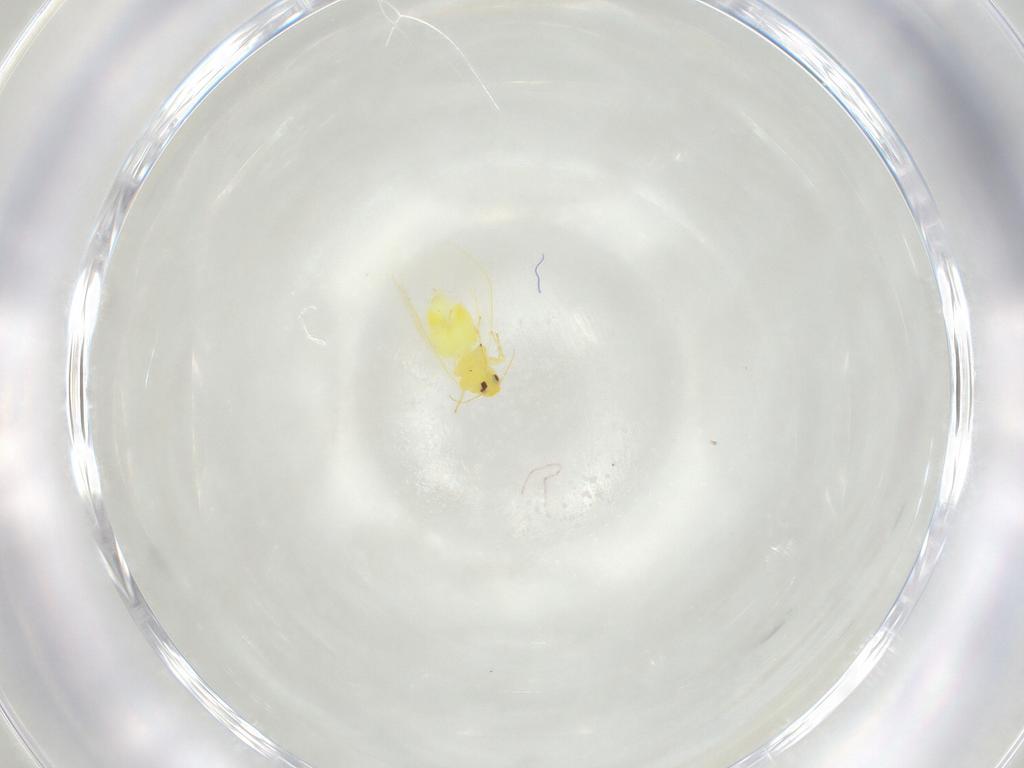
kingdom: Animalia
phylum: Arthropoda
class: Insecta
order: Hemiptera
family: Aleyrodidae
